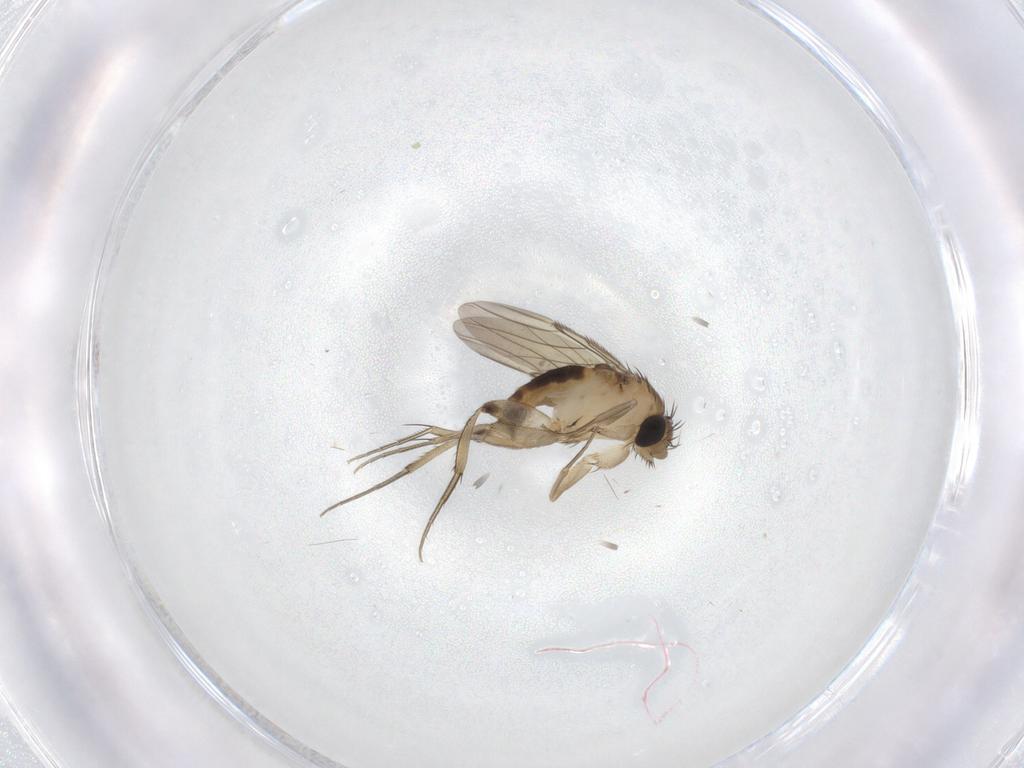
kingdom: Animalia
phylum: Arthropoda
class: Insecta
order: Diptera
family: Phoridae
